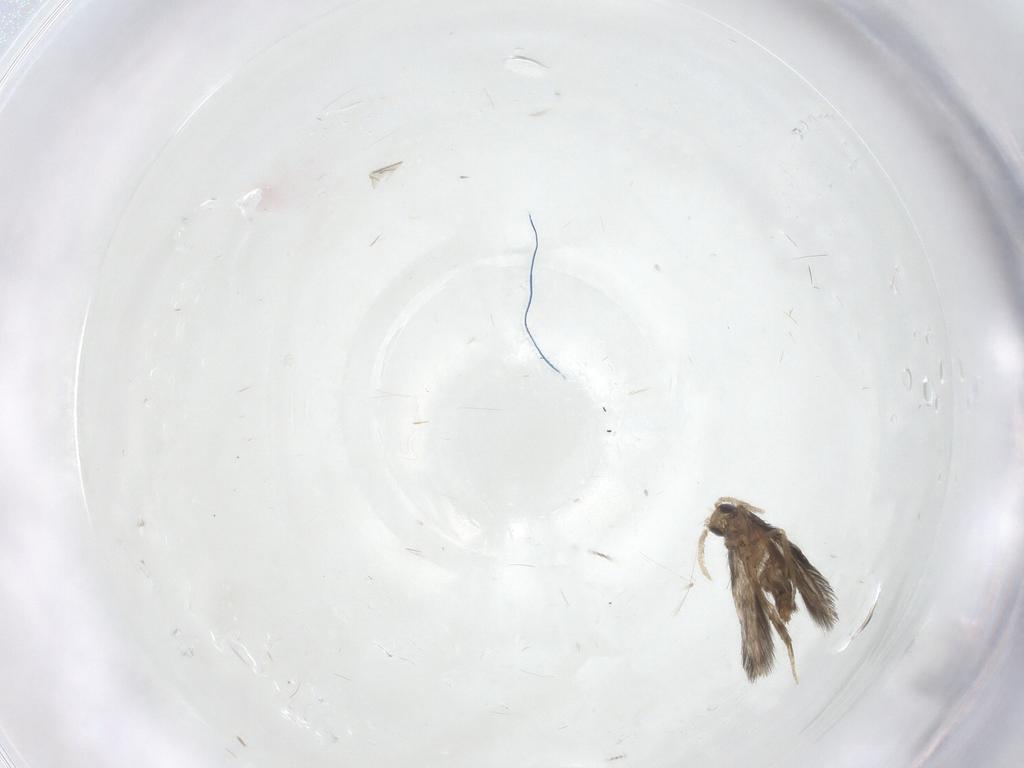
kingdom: Animalia
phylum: Arthropoda
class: Insecta
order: Trichoptera
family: Hydroptilidae
